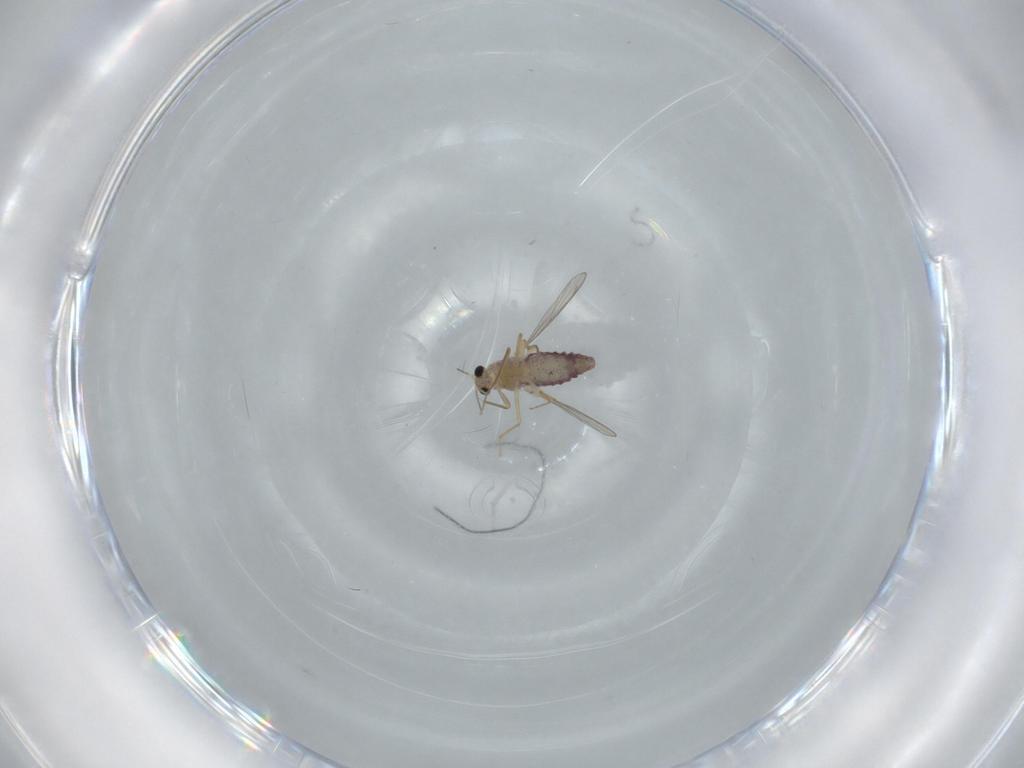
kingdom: Animalia
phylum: Arthropoda
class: Insecta
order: Diptera
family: Chironomidae
